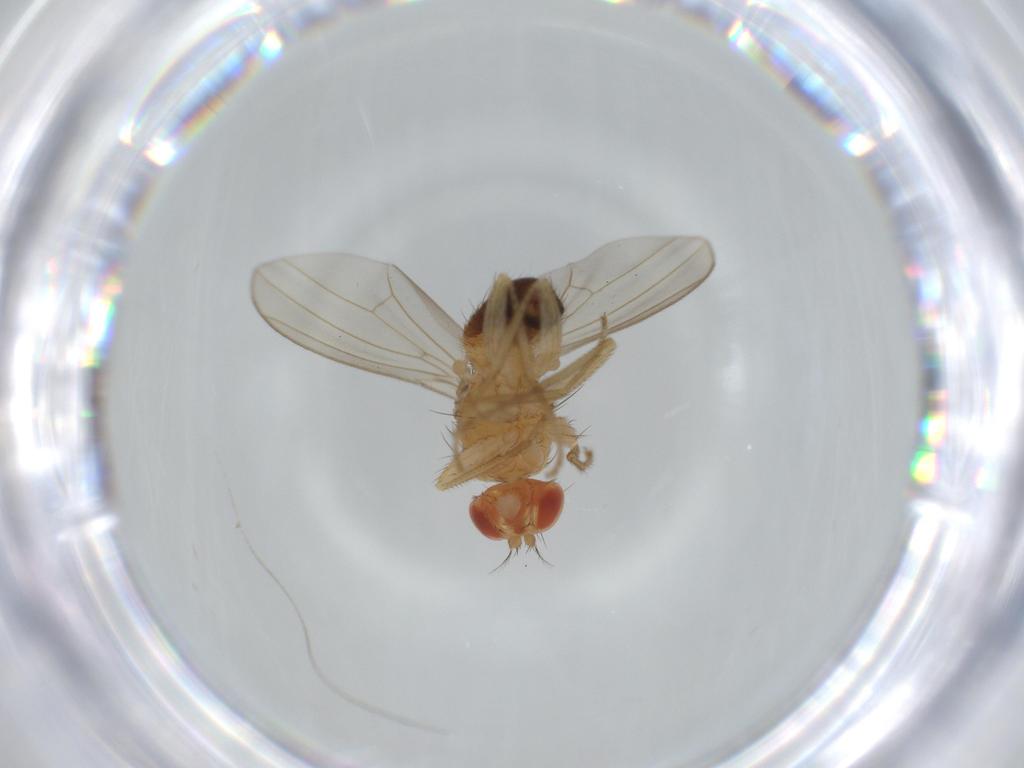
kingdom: Animalia
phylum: Arthropoda
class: Insecta
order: Diptera
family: Drosophilidae
